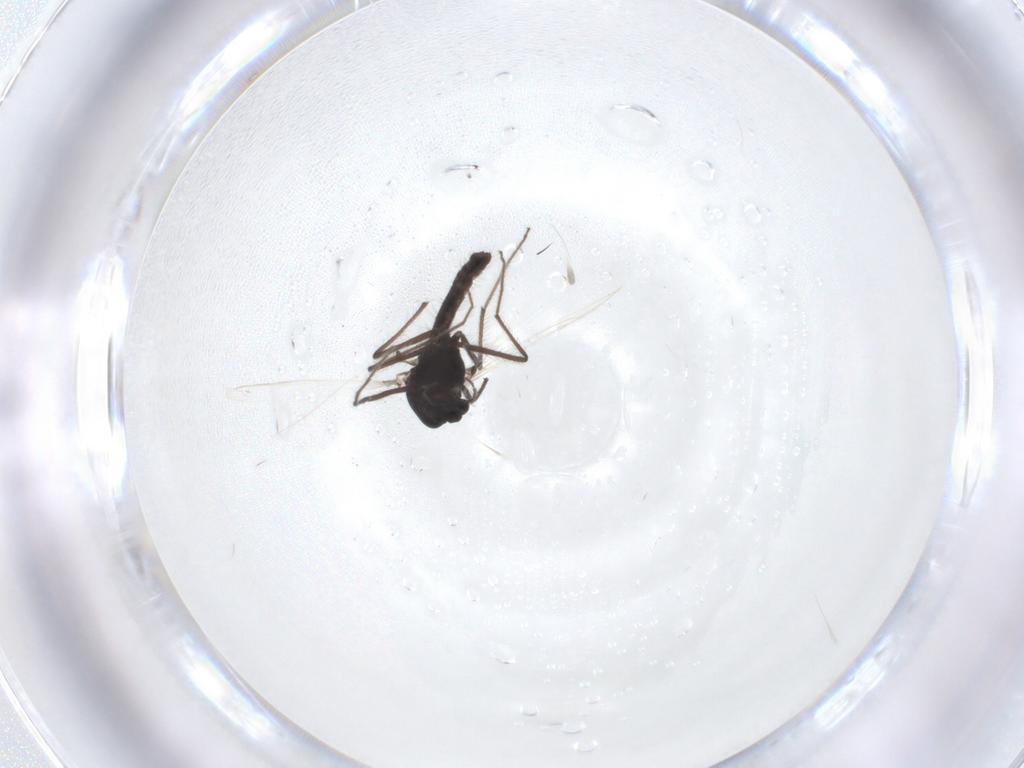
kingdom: Animalia
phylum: Arthropoda
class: Insecta
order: Diptera
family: Chironomidae
